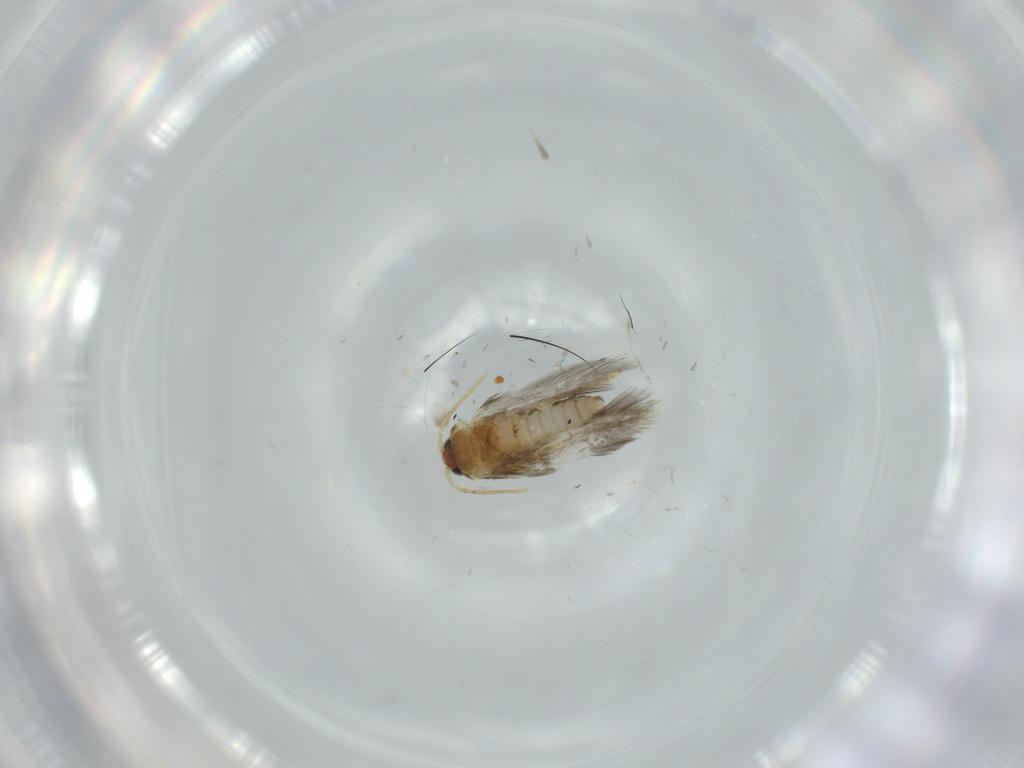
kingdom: Animalia
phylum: Arthropoda
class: Insecta
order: Lepidoptera
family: Copromorphidae
